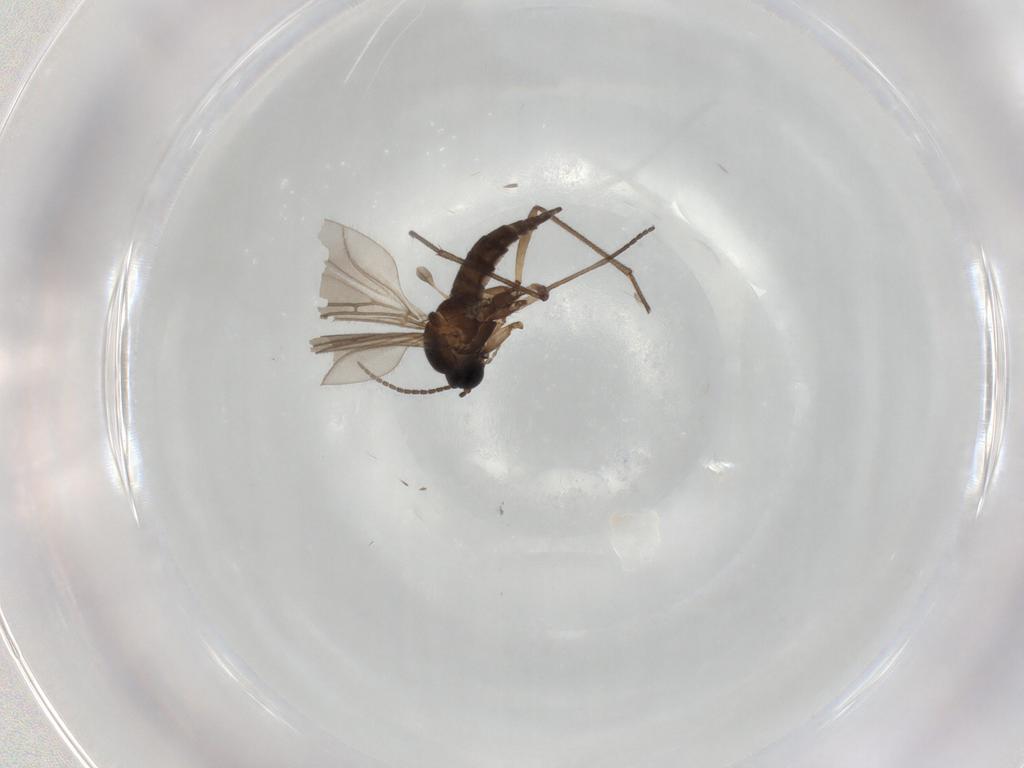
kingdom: Animalia
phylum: Arthropoda
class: Insecta
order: Diptera
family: Sciaridae
